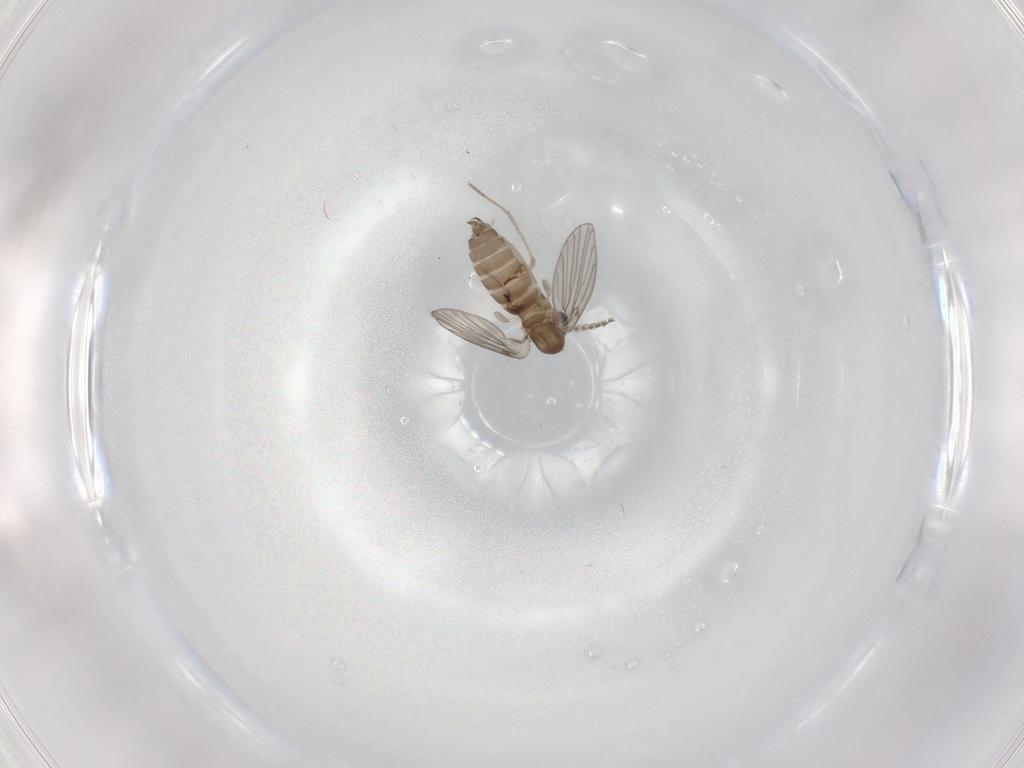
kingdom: Animalia
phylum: Arthropoda
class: Insecta
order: Diptera
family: Psychodidae
